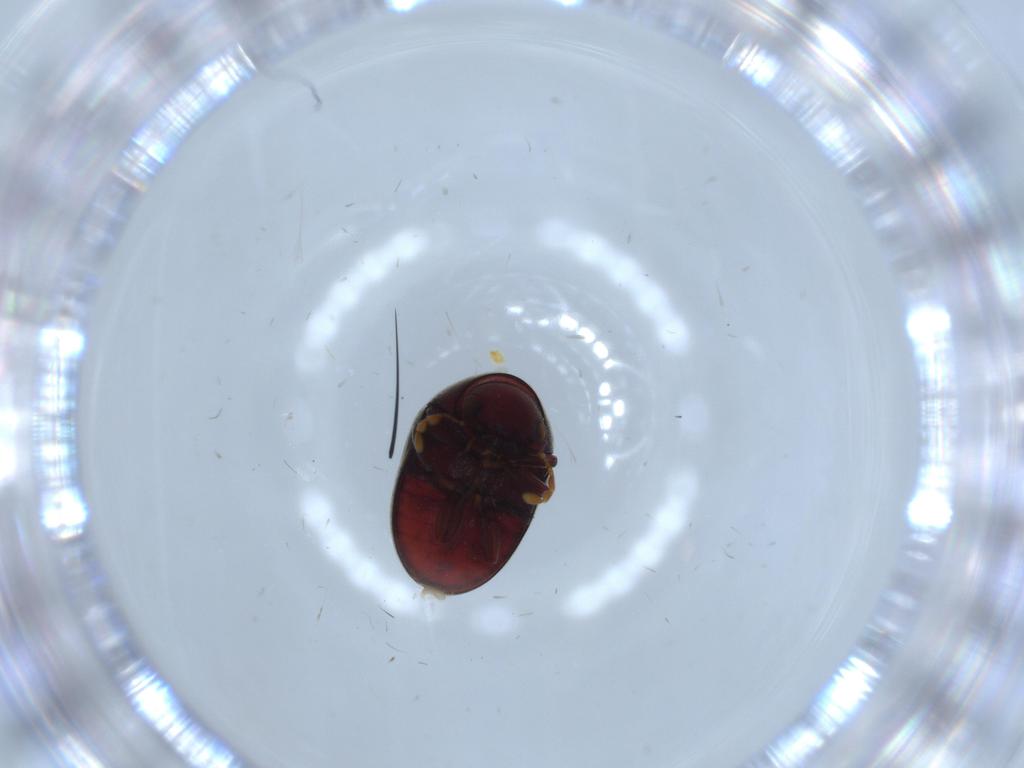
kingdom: Animalia
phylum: Arthropoda
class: Insecta
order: Coleoptera
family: Ptinidae
